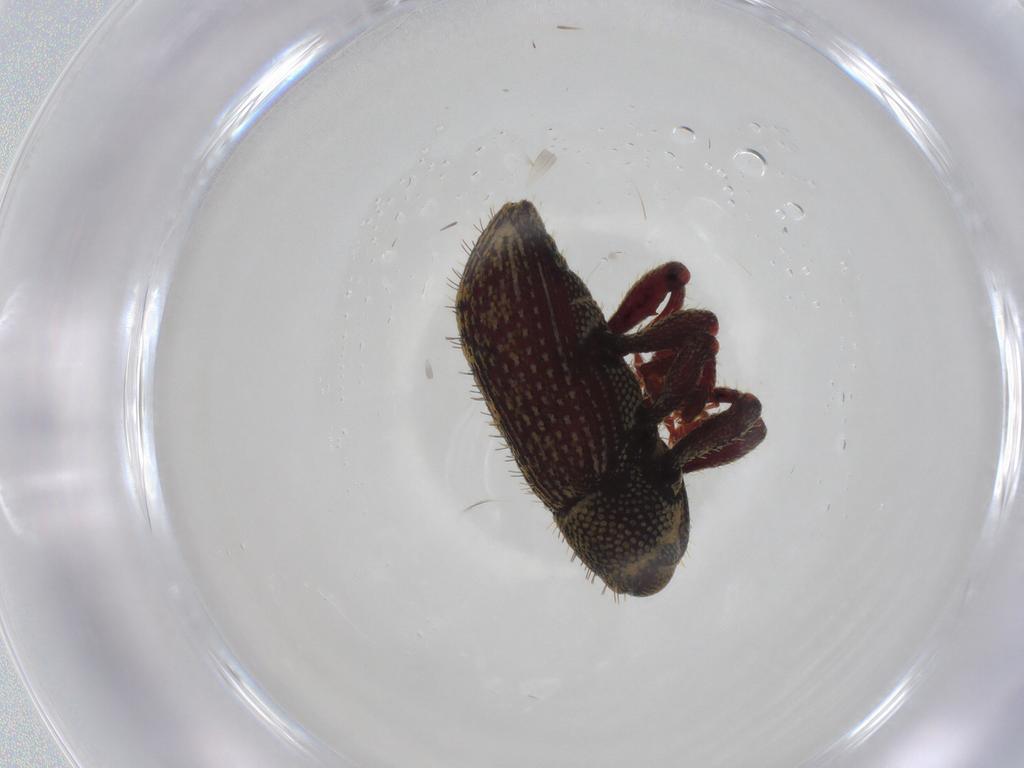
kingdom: Animalia
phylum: Arthropoda
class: Insecta
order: Coleoptera
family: Curculionidae
